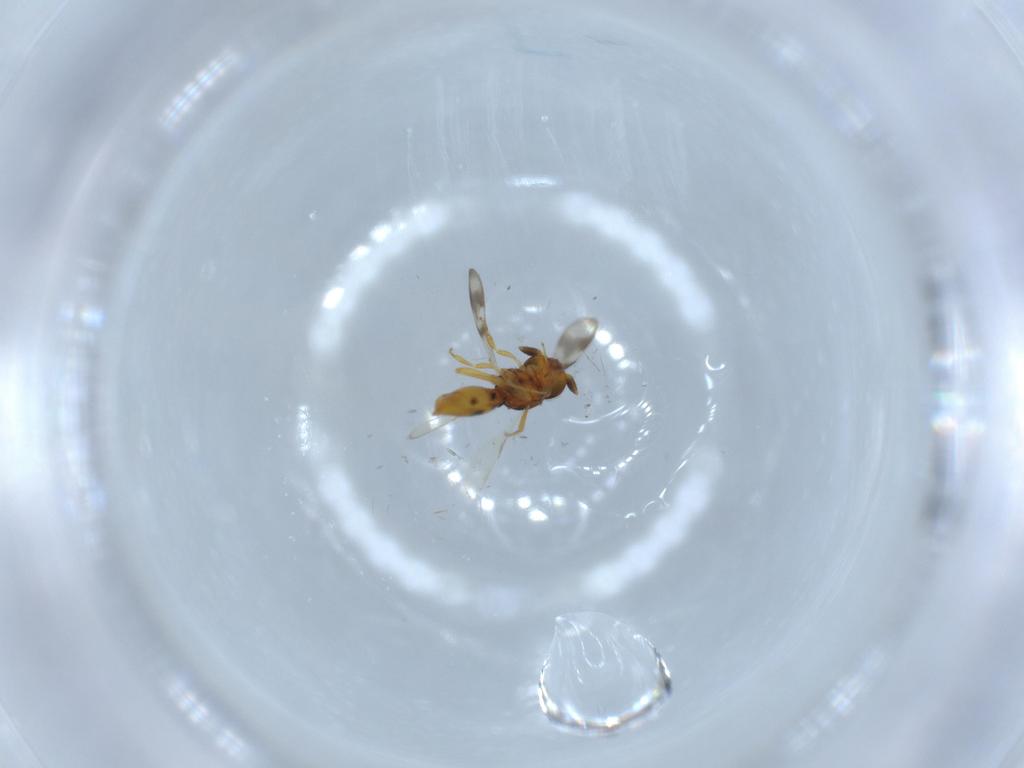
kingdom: Animalia
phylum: Arthropoda
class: Insecta
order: Hymenoptera
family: Scelionidae
